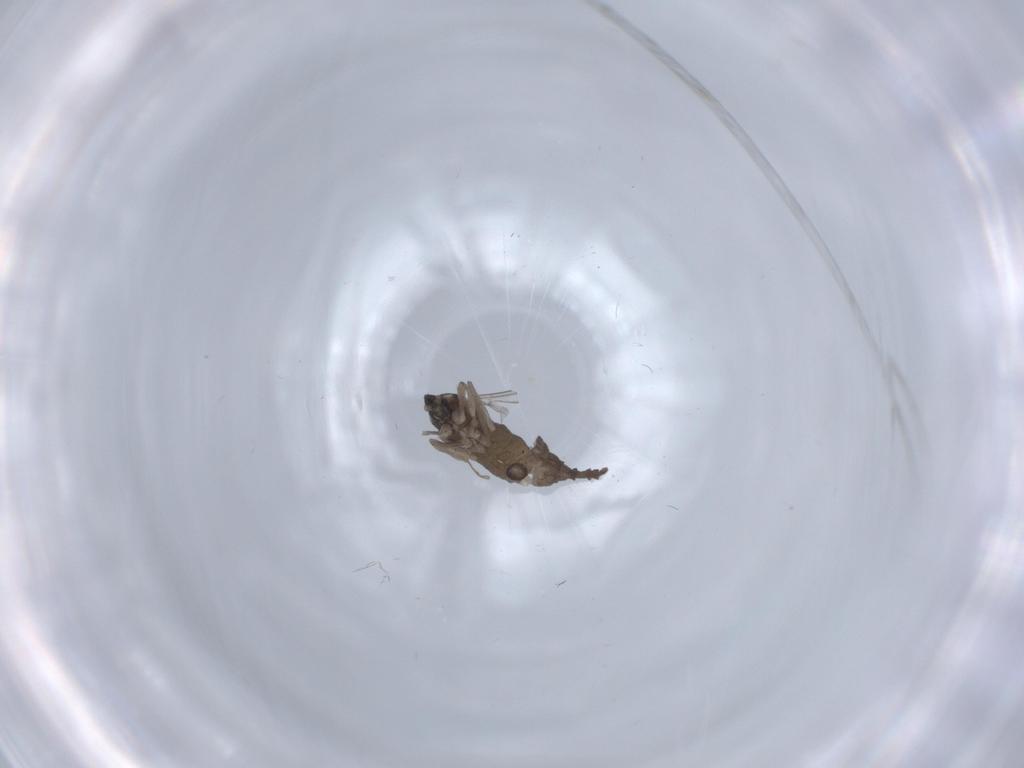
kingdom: Animalia
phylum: Arthropoda
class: Insecta
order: Diptera
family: Cecidomyiidae
